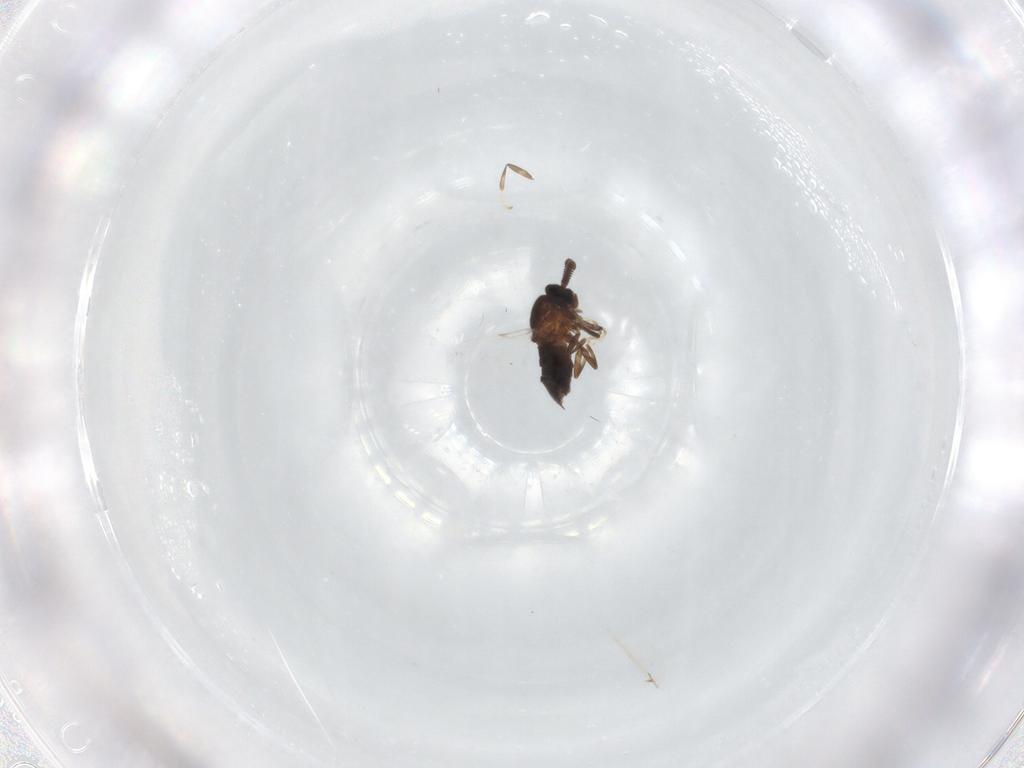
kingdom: Animalia
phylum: Arthropoda
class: Insecta
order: Diptera
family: Scatopsidae
